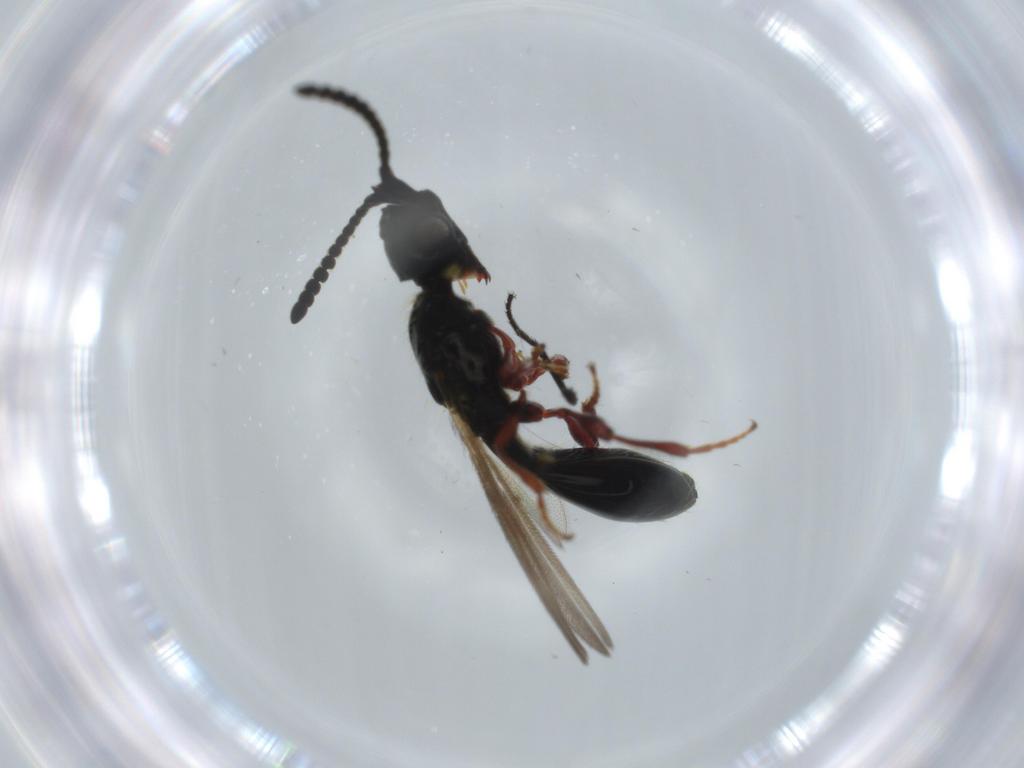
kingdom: Animalia
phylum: Arthropoda
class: Insecta
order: Hymenoptera
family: Diapriidae
